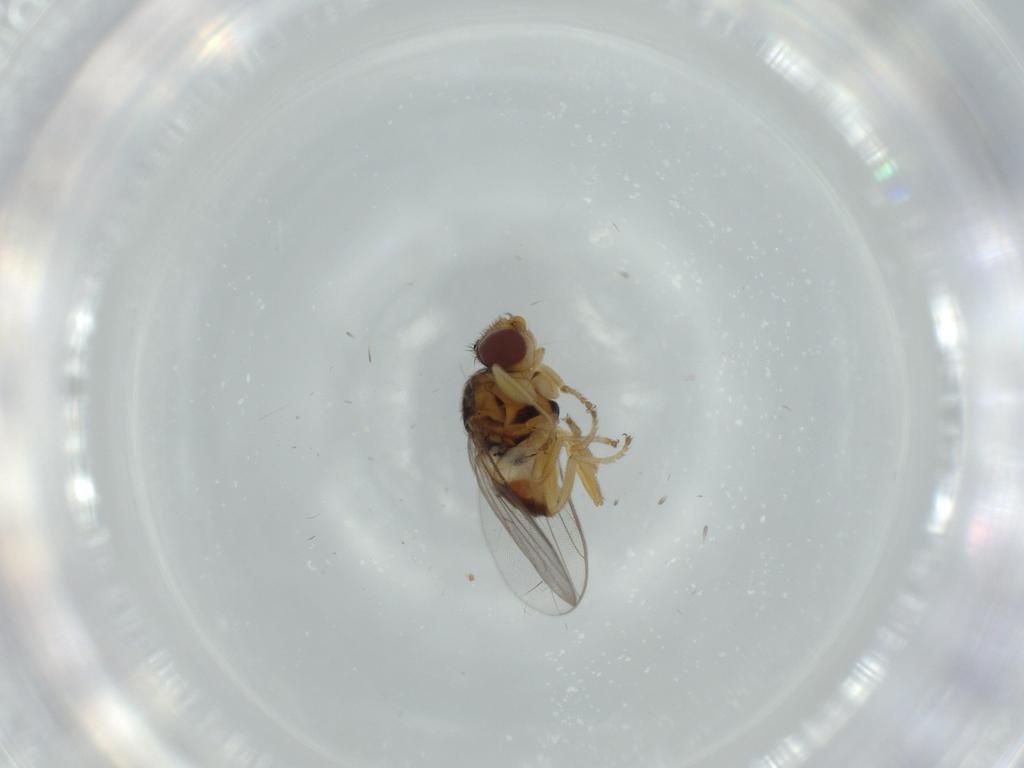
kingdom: Animalia
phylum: Arthropoda
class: Insecta
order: Diptera
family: Chloropidae
